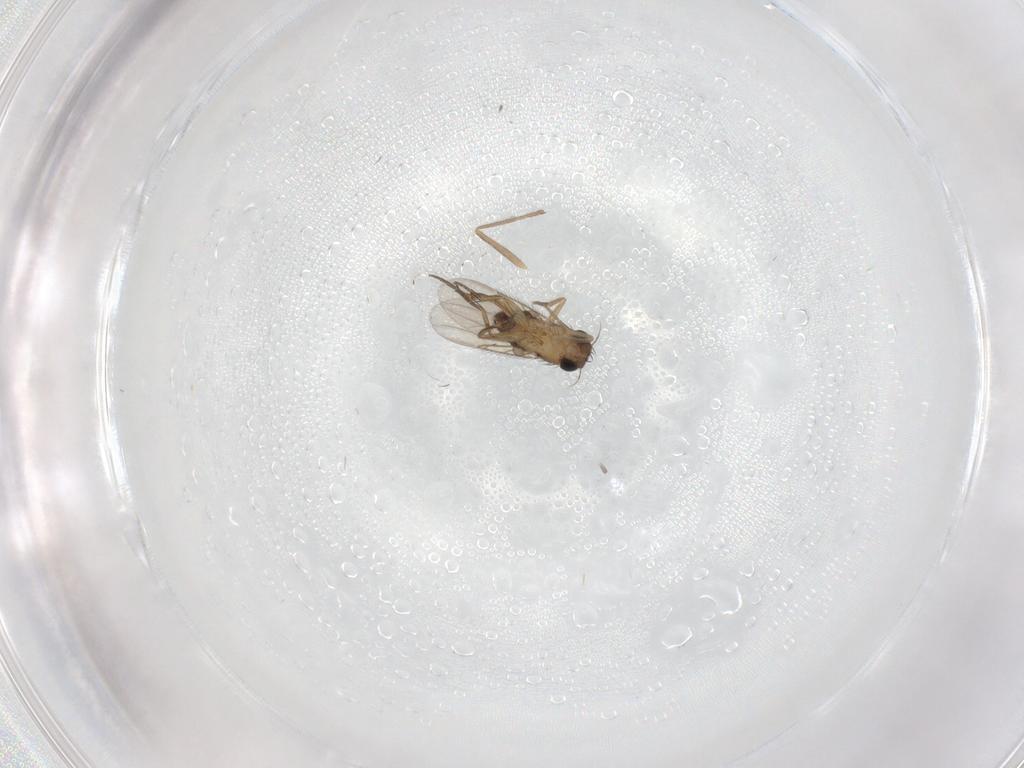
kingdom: Animalia
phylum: Arthropoda
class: Insecta
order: Diptera
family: Phoridae
